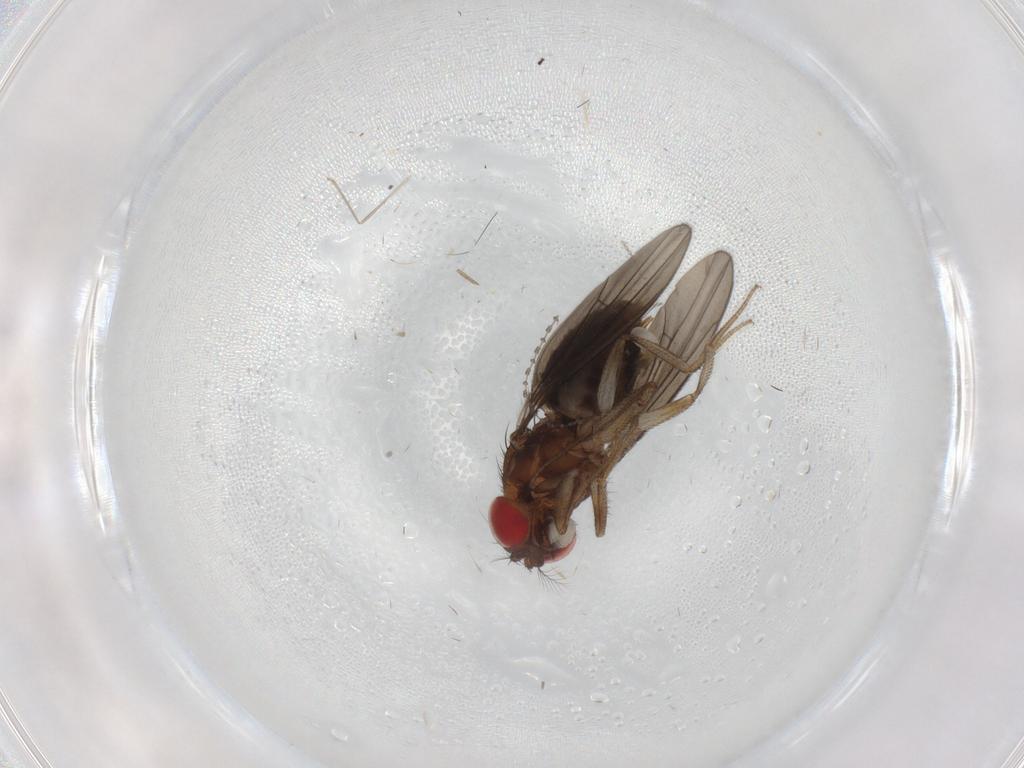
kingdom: Animalia
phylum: Arthropoda
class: Insecta
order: Diptera
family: Drosophilidae
